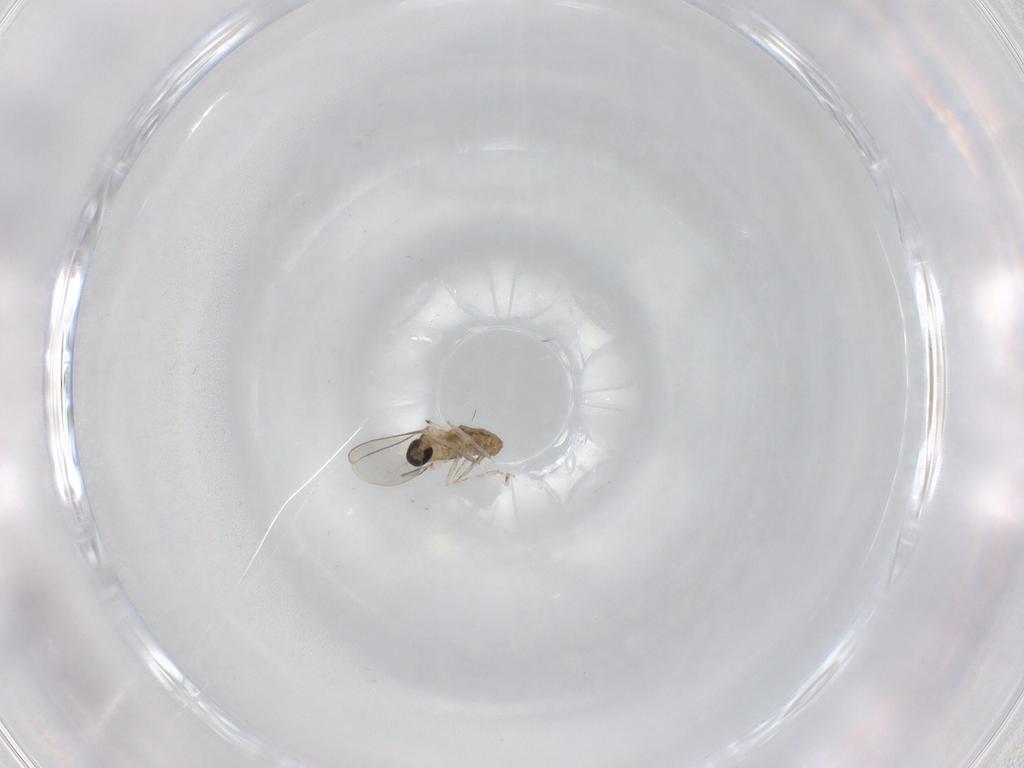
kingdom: Animalia
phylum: Arthropoda
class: Insecta
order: Diptera
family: Cecidomyiidae
